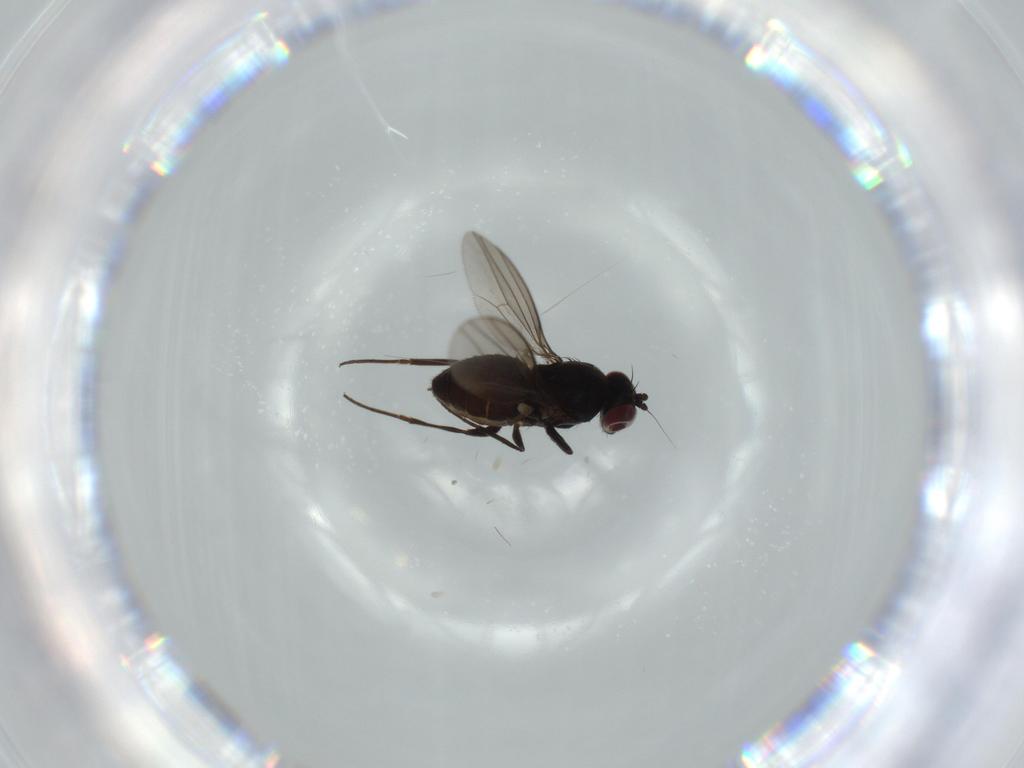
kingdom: Animalia
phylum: Arthropoda
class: Insecta
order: Diptera
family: Dolichopodidae
